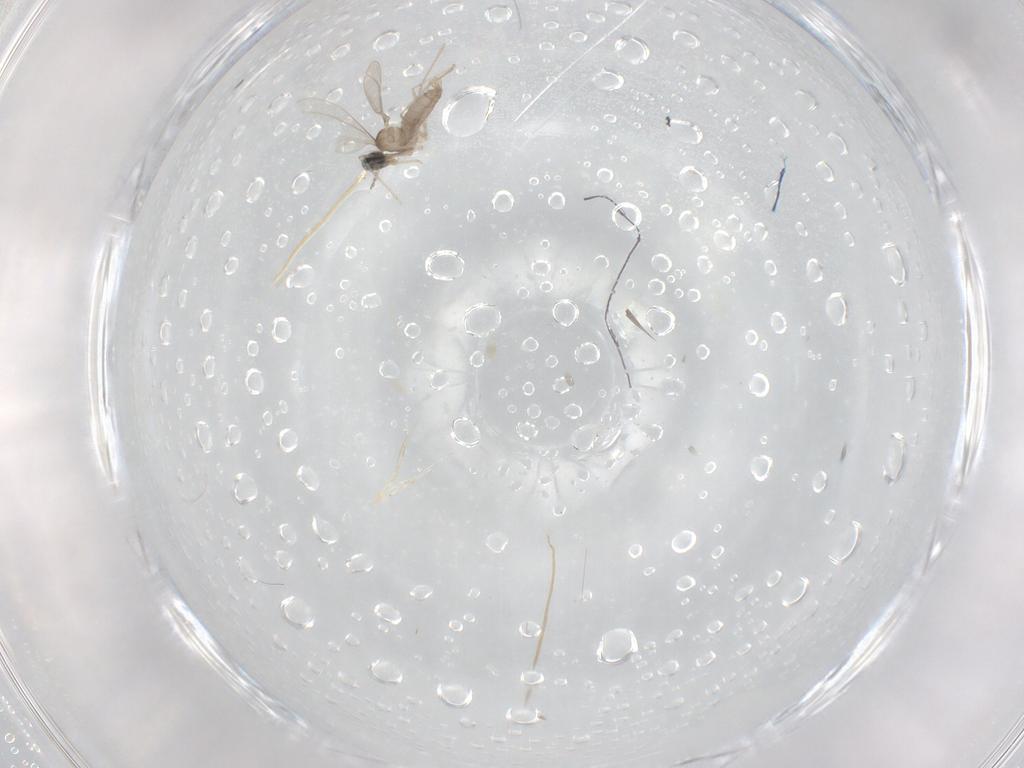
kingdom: Animalia
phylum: Arthropoda
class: Insecta
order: Diptera
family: Cecidomyiidae
